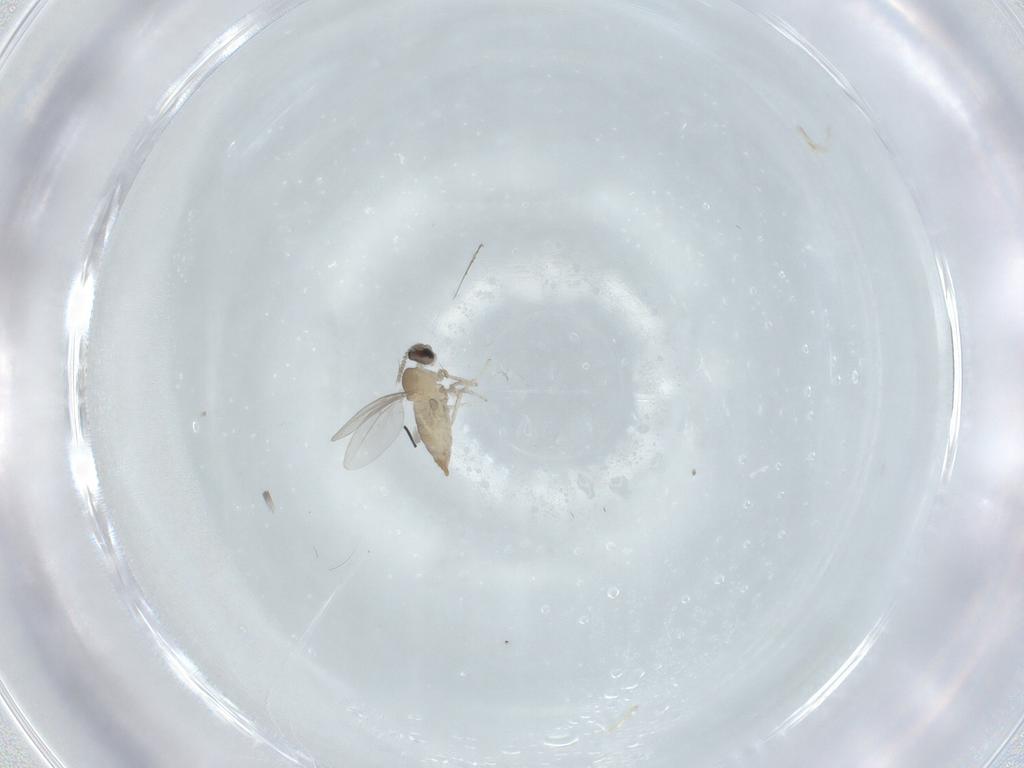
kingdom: Animalia
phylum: Arthropoda
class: Insecta
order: Diptera
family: Cecidomyiidae
